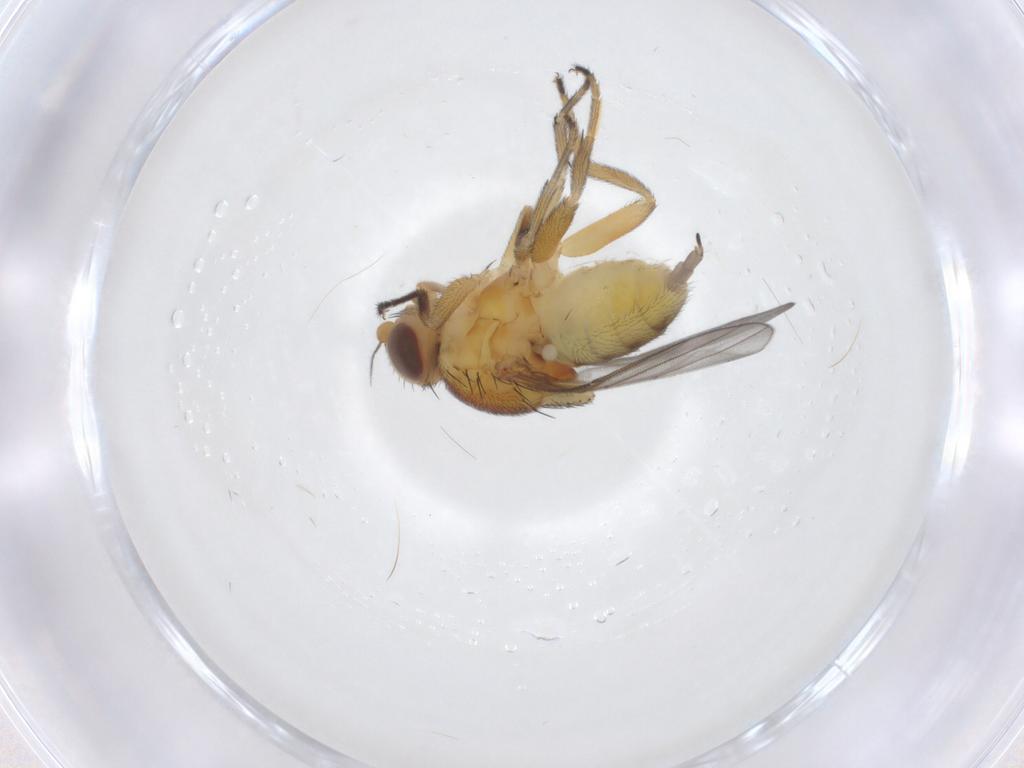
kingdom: Animalia
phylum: Arthropoda
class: Insecta
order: Diptera
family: Chloropidae
